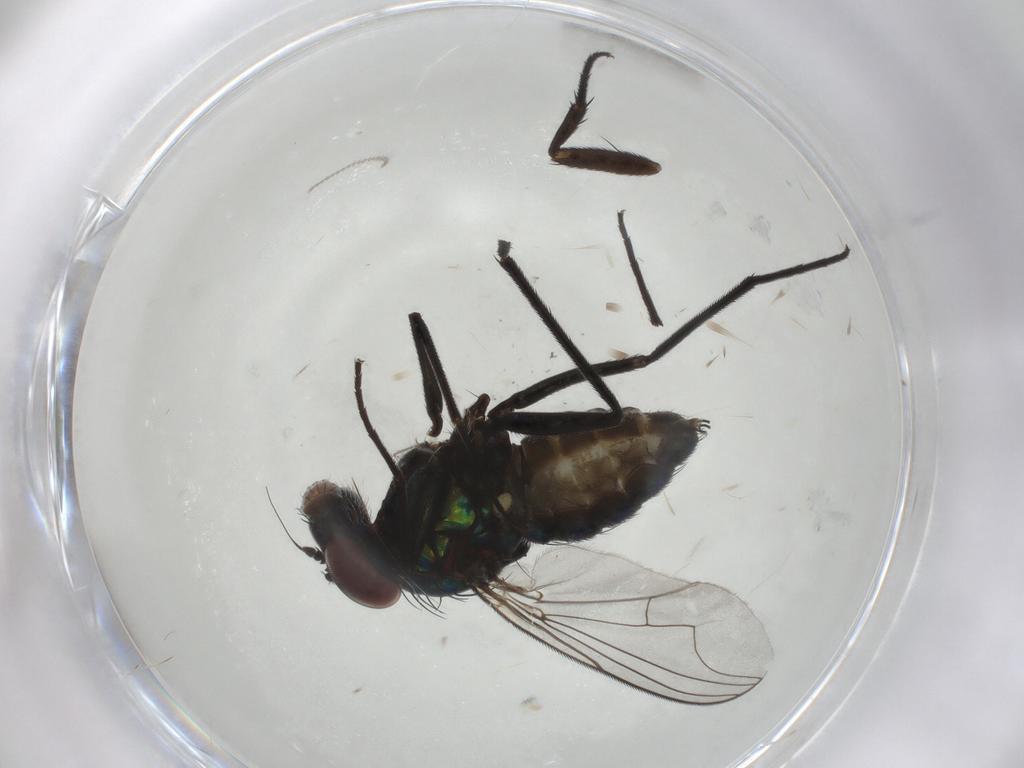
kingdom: Animalia
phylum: Arthropoda
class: Insecta
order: Diptera
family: Dolichopodidae
